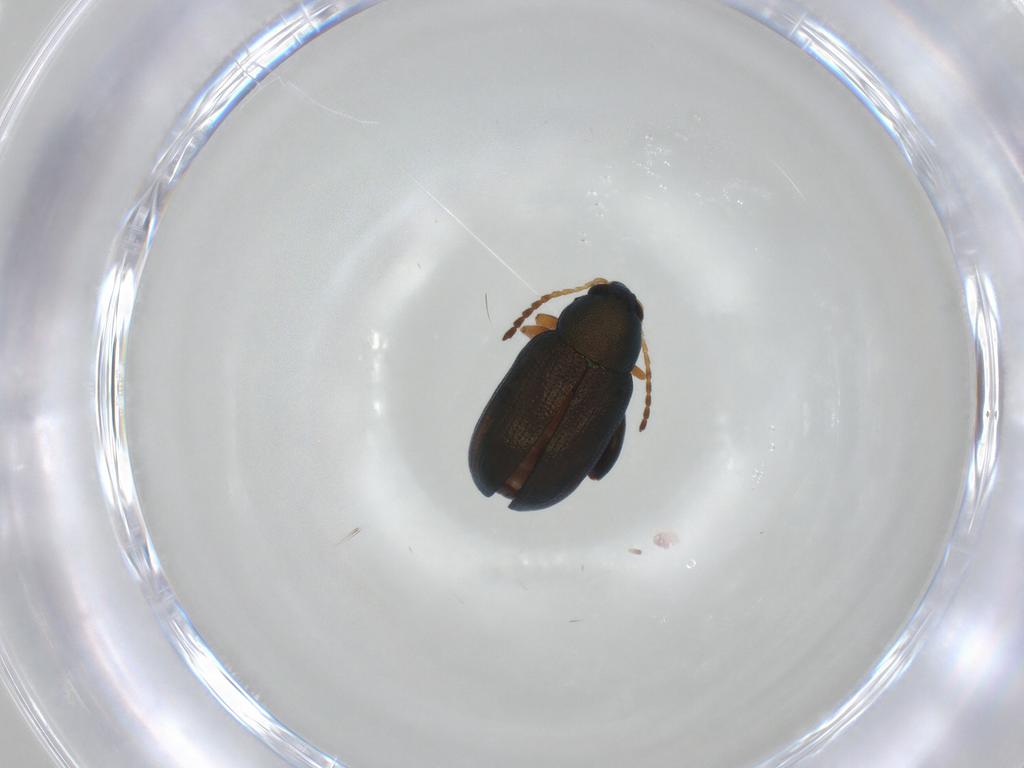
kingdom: Animalia
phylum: Arthropoda
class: Insecta
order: Coleoptera
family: Chrysomelidae
